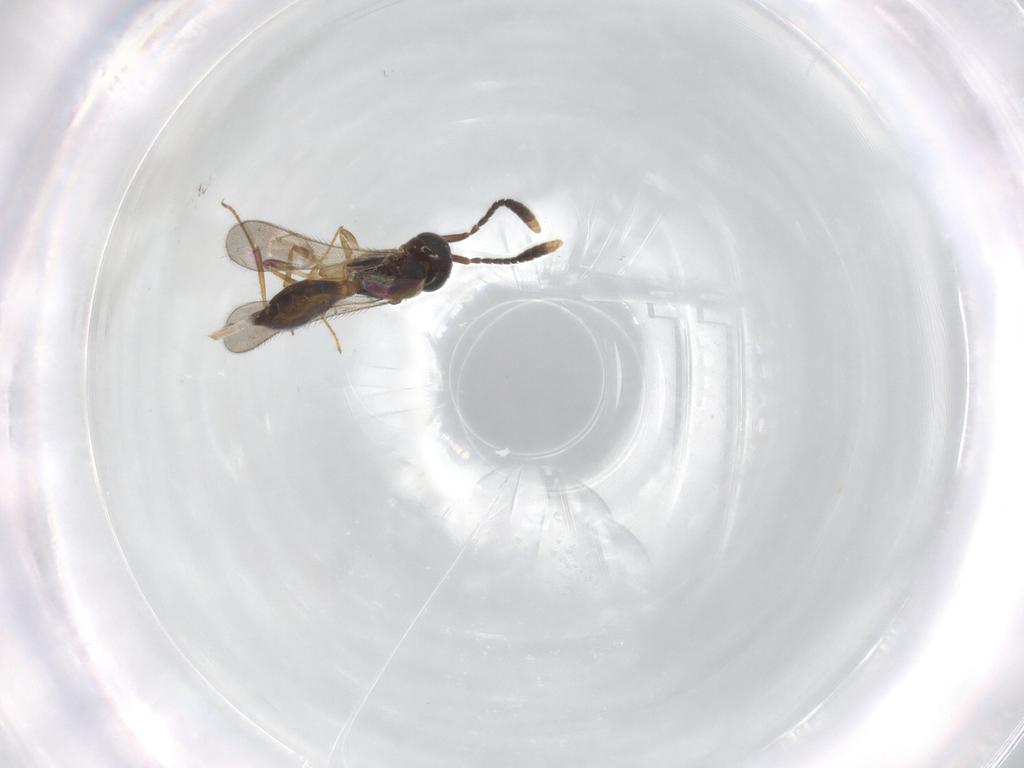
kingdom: Animalia
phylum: Arthropoda
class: Insecta
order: Hymenoptera
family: Scelionidae
